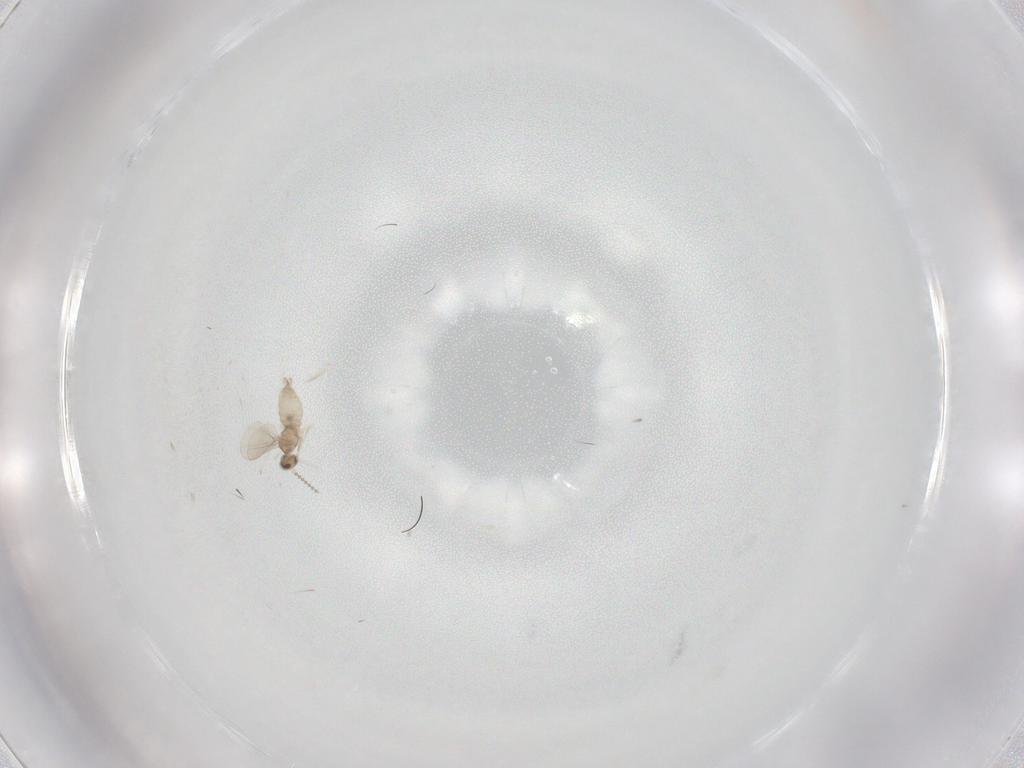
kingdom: Animalia
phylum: Arthropoda
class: Insecta
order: Diptera
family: Cecidomyiidae
